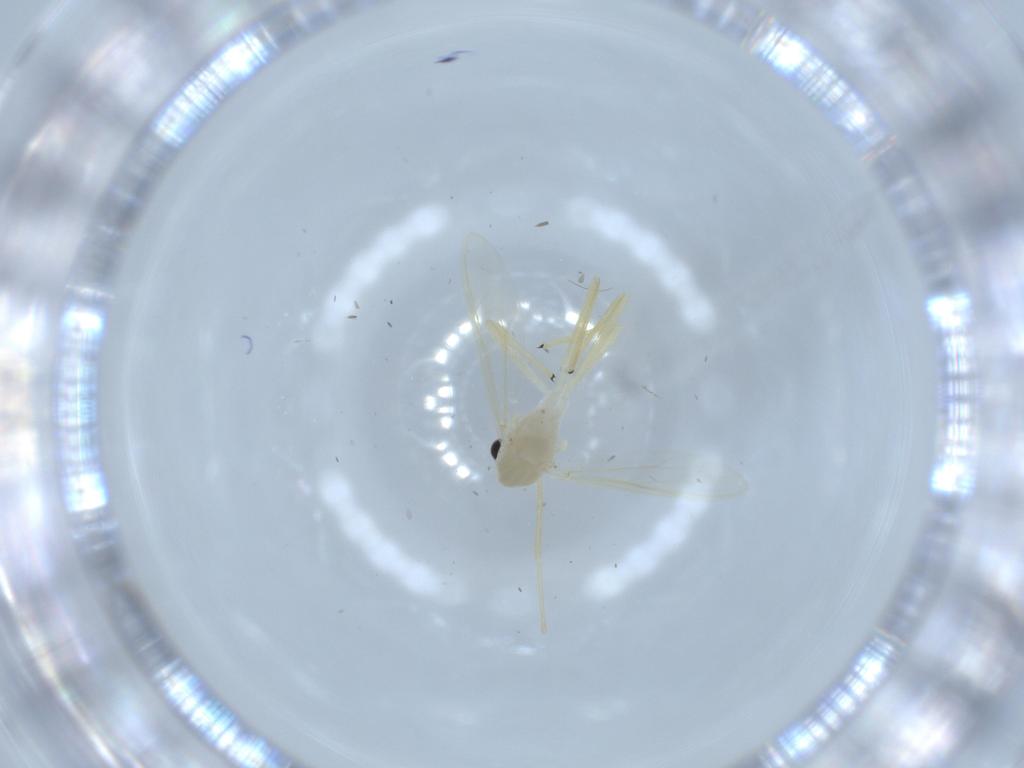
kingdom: Animalia
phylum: Arthropoda
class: Insecta
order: Diptera
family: Chironomidae
